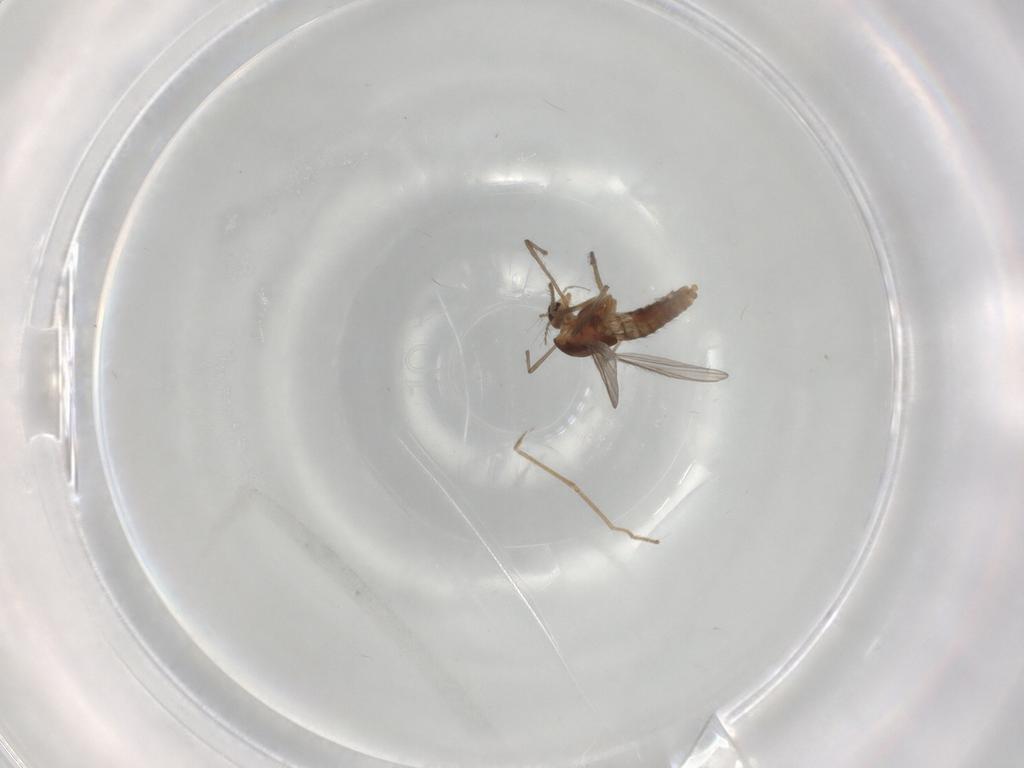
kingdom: Animalia
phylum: Arthropoda
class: Insecta
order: Diptera
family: Chironomidae
